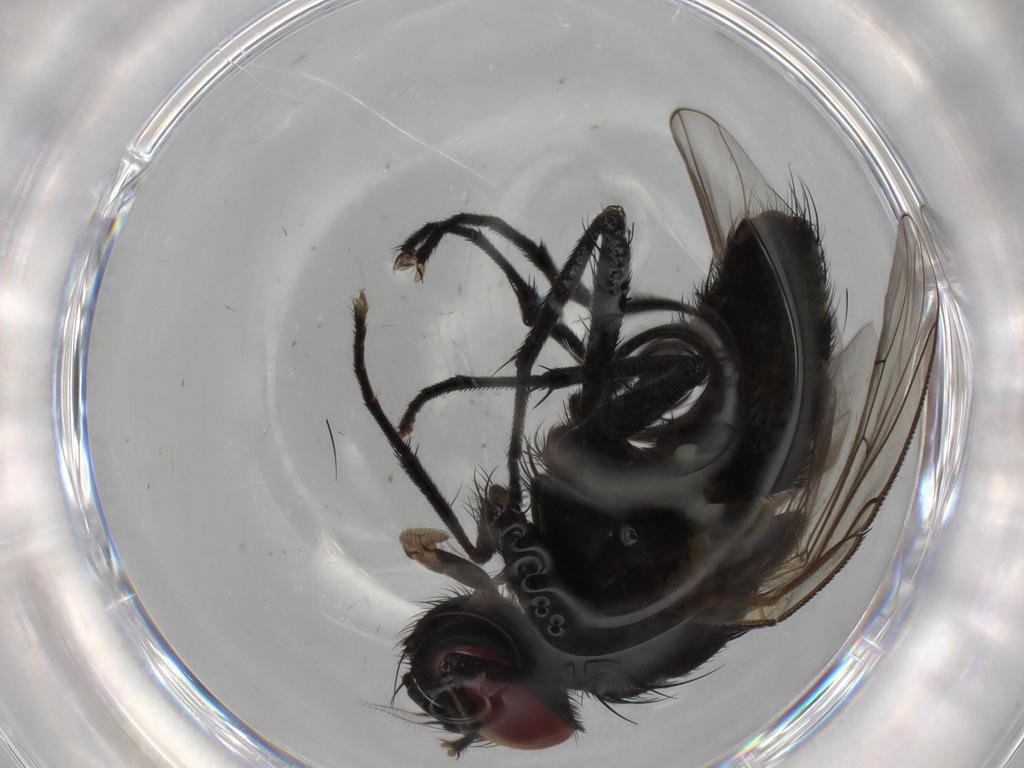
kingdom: Animalia
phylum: Arthropoda
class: Insecta
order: Diptera
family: Muscidae
